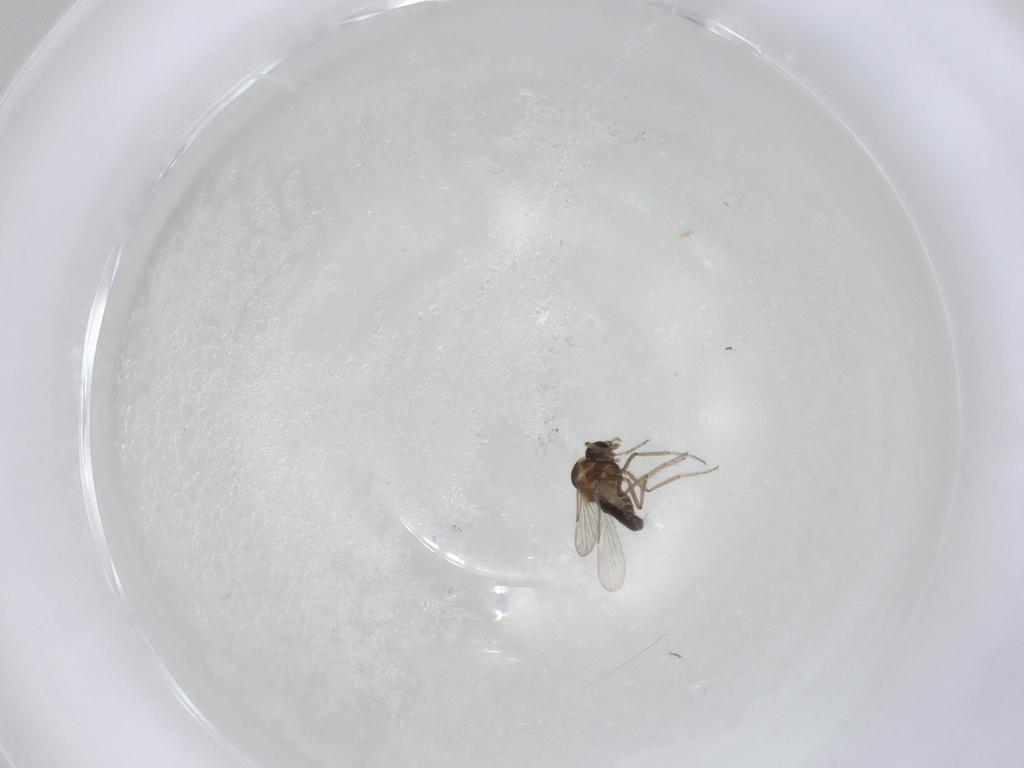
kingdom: Animalia
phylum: Arthropoda
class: Insecta
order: Diptera
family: Ceratopogonidae
